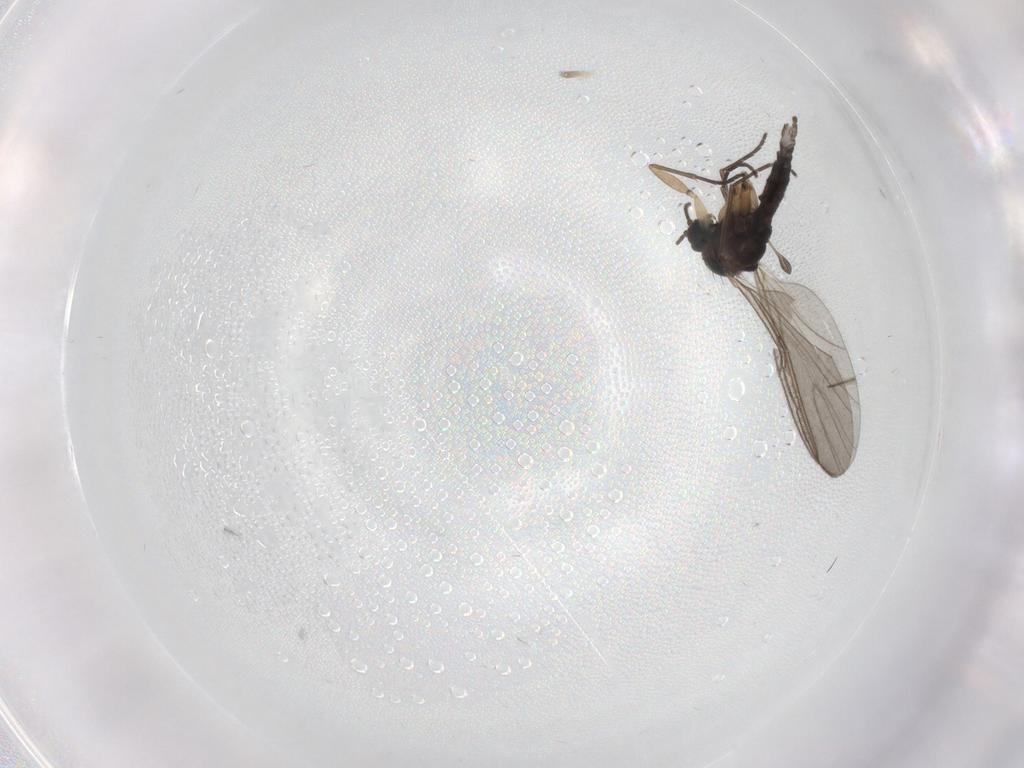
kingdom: Animalia
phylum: Arthropoda
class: Insecta
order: Diptera
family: Sciaridae
